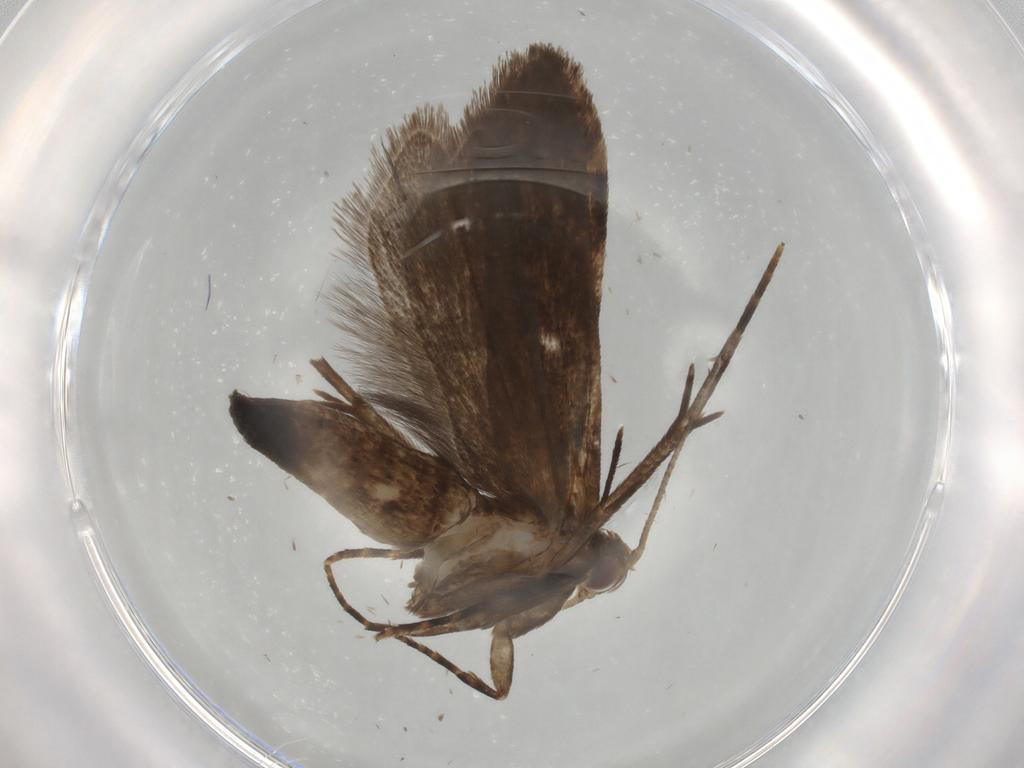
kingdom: Animalia
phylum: Arthropoda
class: Insecta
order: Lepidoptera
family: Gelechiidae
